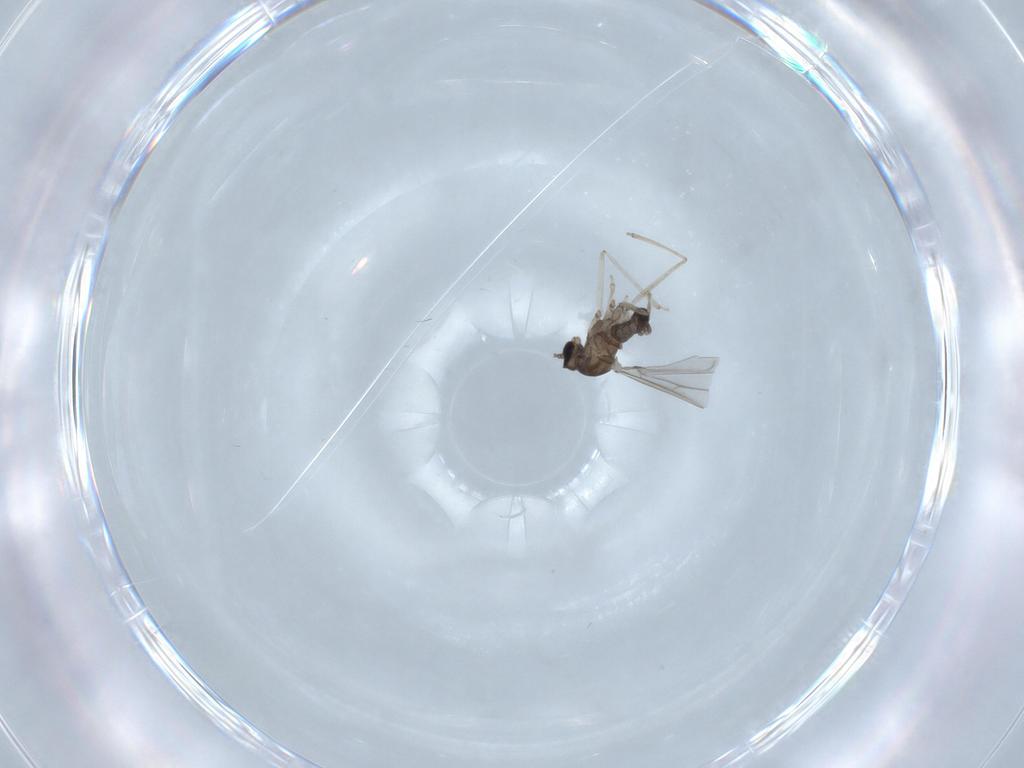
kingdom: Animalia
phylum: Arthropoda
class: Insecta
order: Diptera
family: Cecidomyiidae
